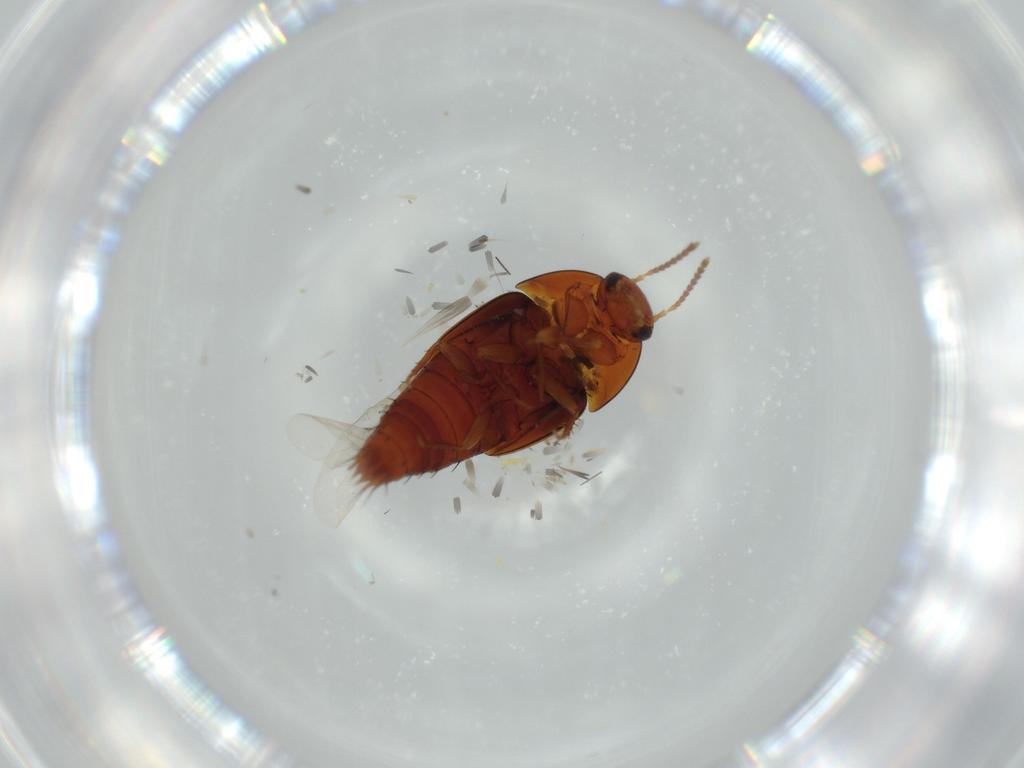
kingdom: Animalia
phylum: Arthropoda
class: Insecta
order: Coleoptera
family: Staphylinidae
